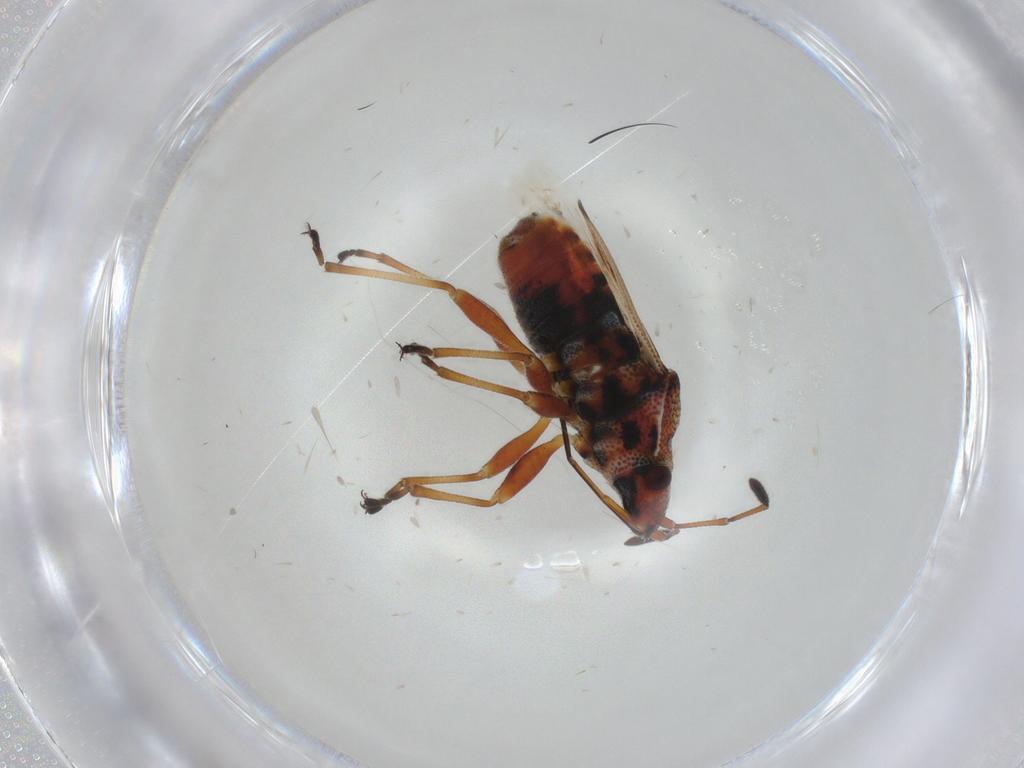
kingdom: Animalia
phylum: Arthropoda
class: Insecta
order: Hemiptera
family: Lygaeidae
